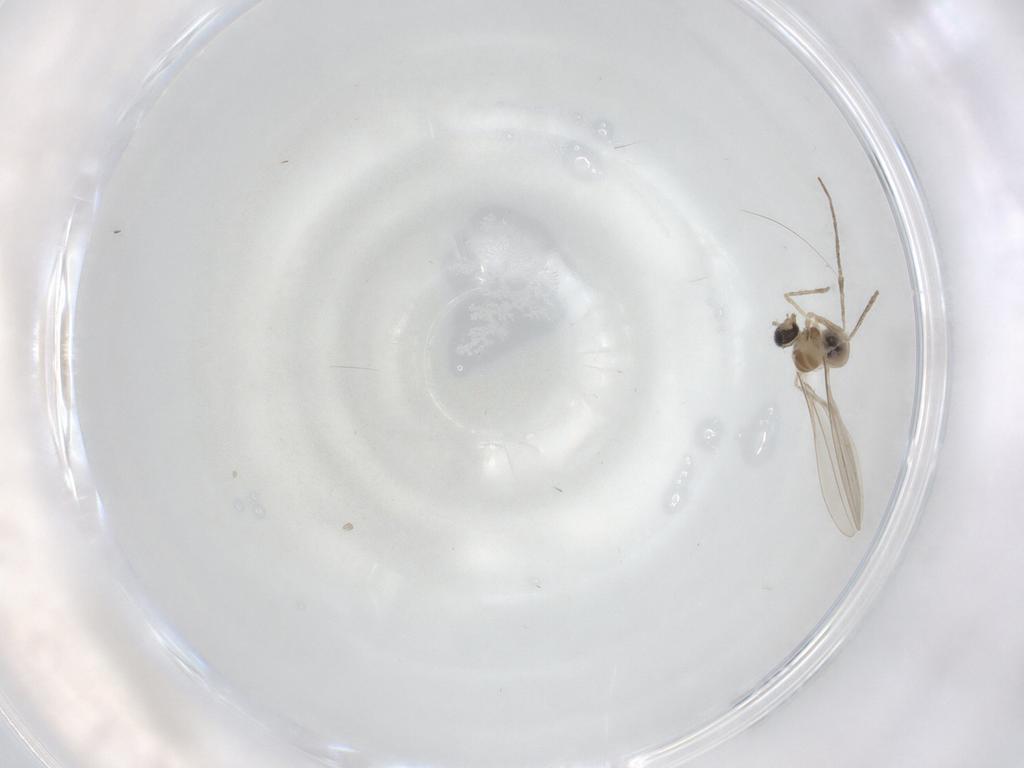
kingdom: Animalia
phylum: Arthropoda
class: Insecta
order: Diptera
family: Cecidomyiidae
